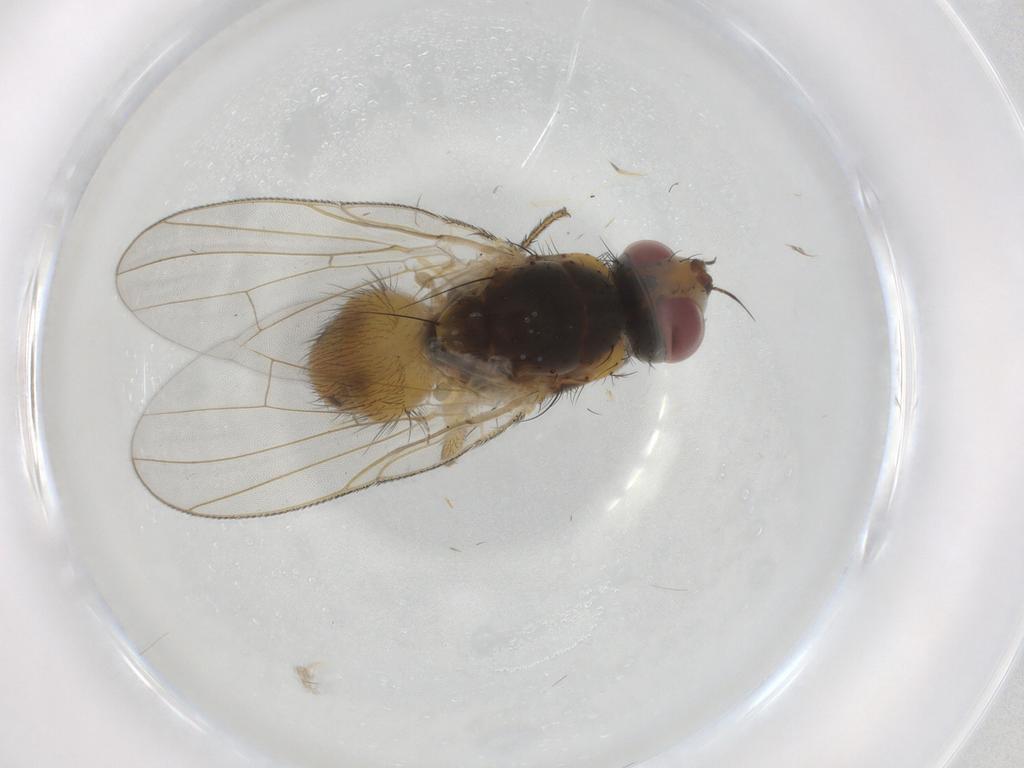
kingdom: Animalia
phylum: Arthropoda
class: Insecta
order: Diptera
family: Muscidae
